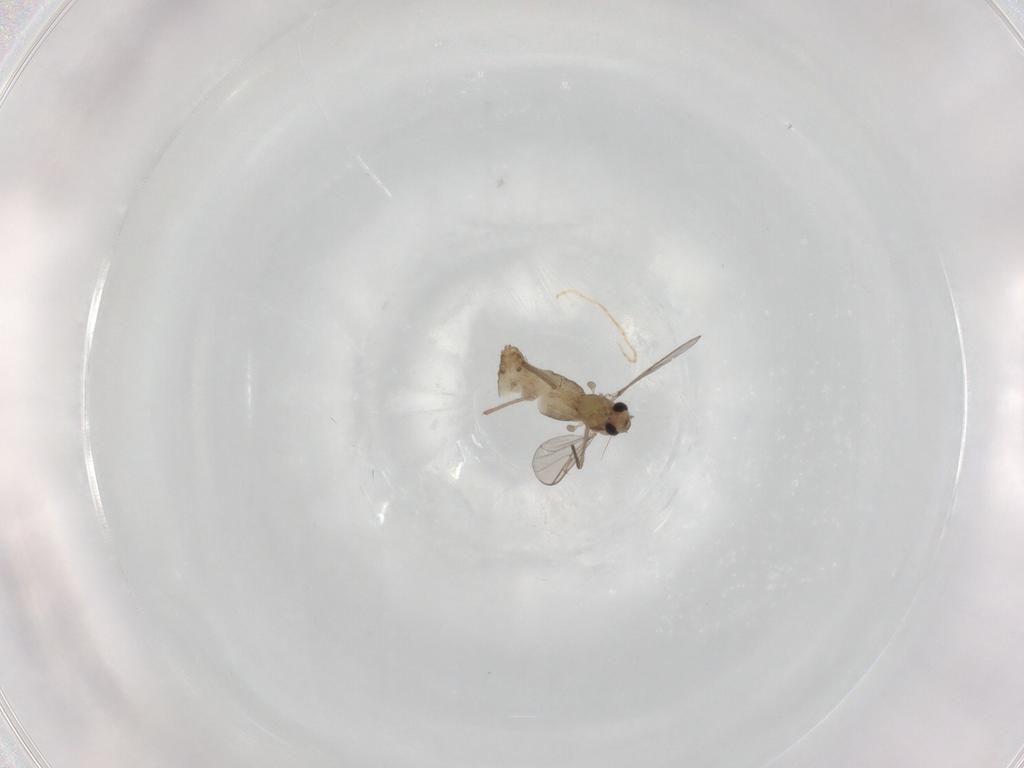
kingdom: Animalia
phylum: Arthropoda
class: Insecta
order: Diptera
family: Chironomidae
